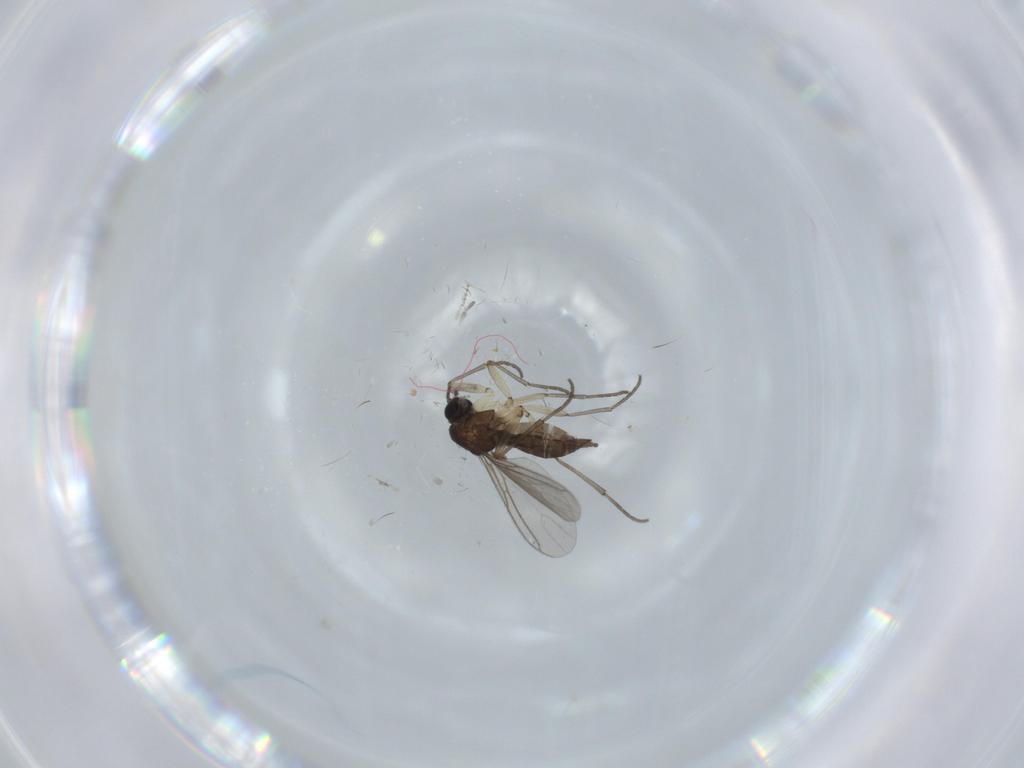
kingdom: Animalia
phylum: Arthropoda
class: Insecta
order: Diptera
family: Sciaridae
